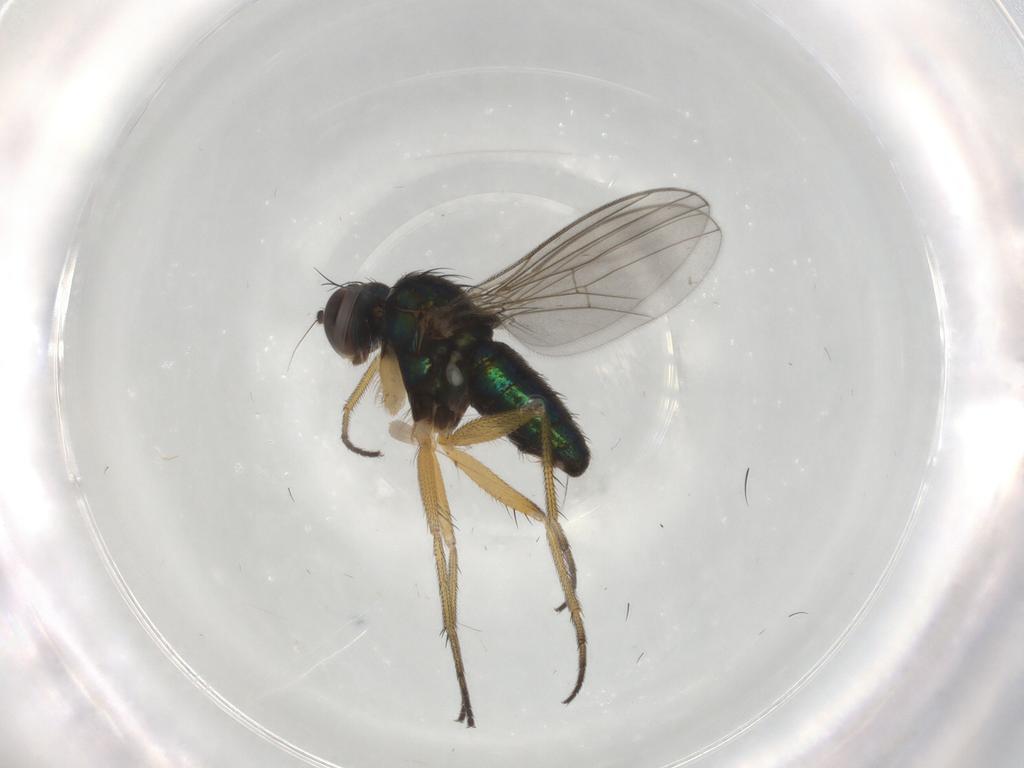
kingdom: Animalia
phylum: Arthropoda
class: Insecta
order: Diptera
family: Dolichopodidae
